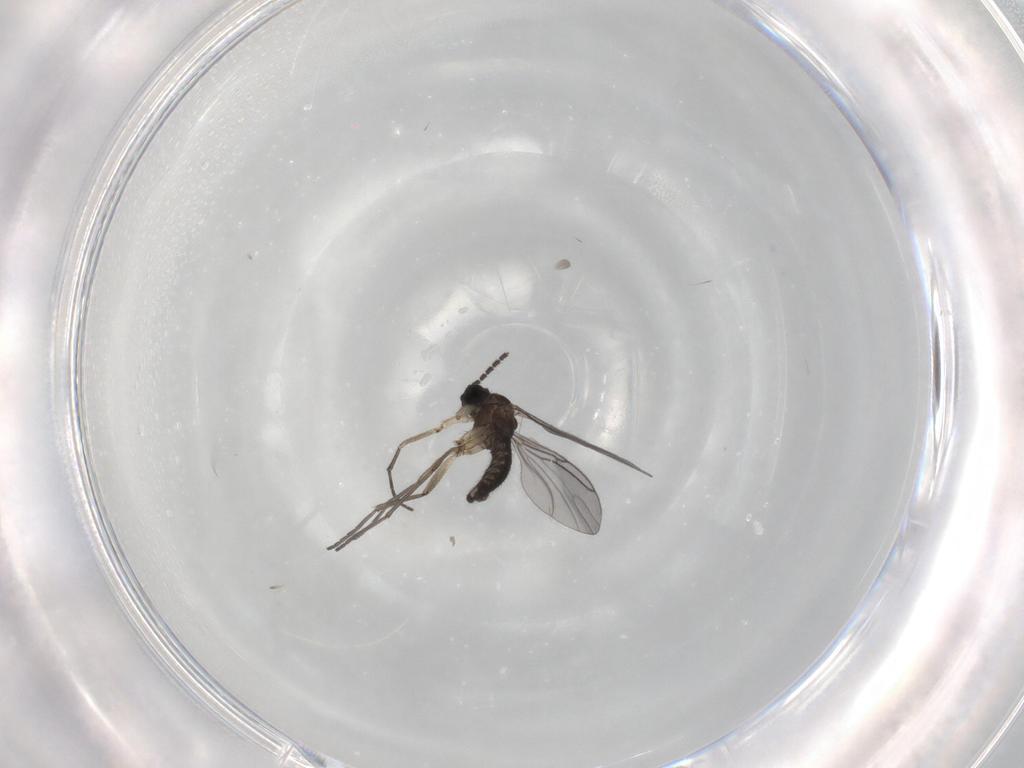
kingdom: Animalia
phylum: Arthropoda
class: Insecta
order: Diptera
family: Sciaridae
